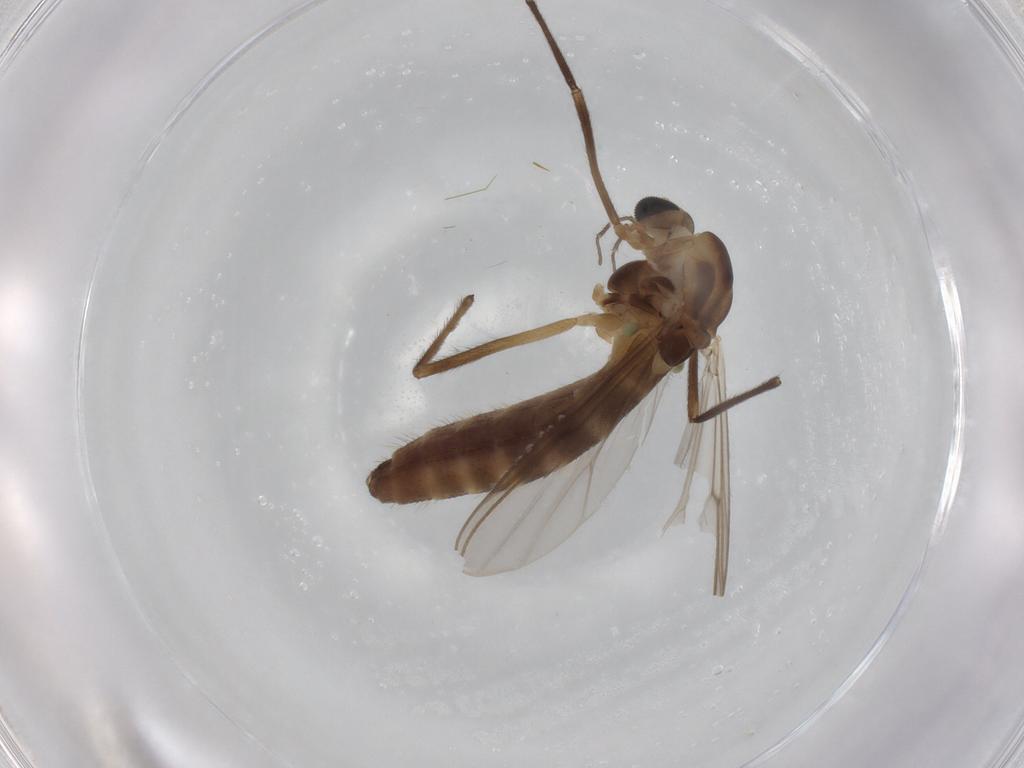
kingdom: Animalia
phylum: Arthropoda
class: Insecta
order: Diptera
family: Chironomidae
